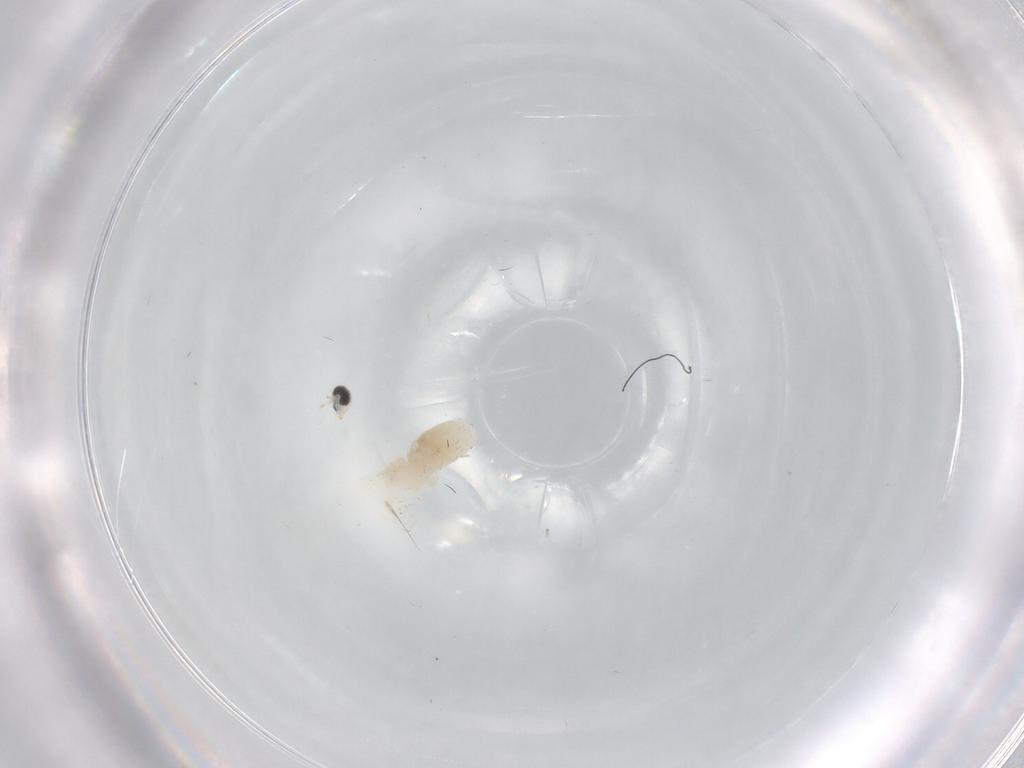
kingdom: Animalia
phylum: Arthropoda
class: Insecta
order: Diptera
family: Cecidomyiidae
